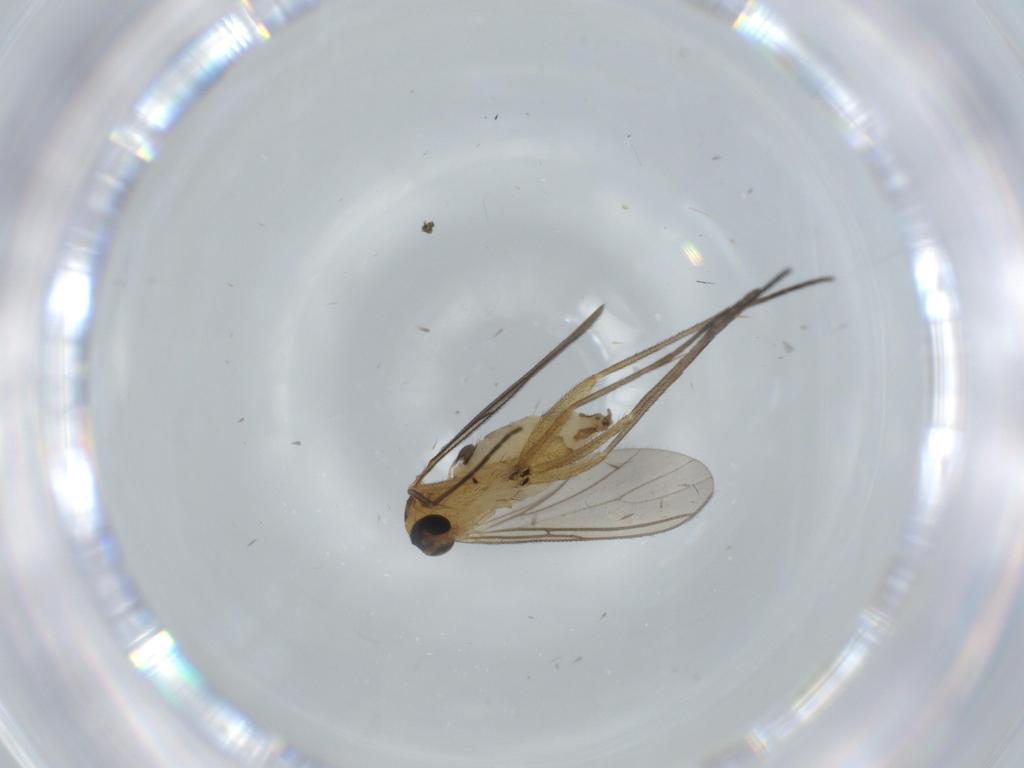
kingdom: Animalia
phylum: Arthropoda
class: Insecta
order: Diptera
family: Sciaridae
